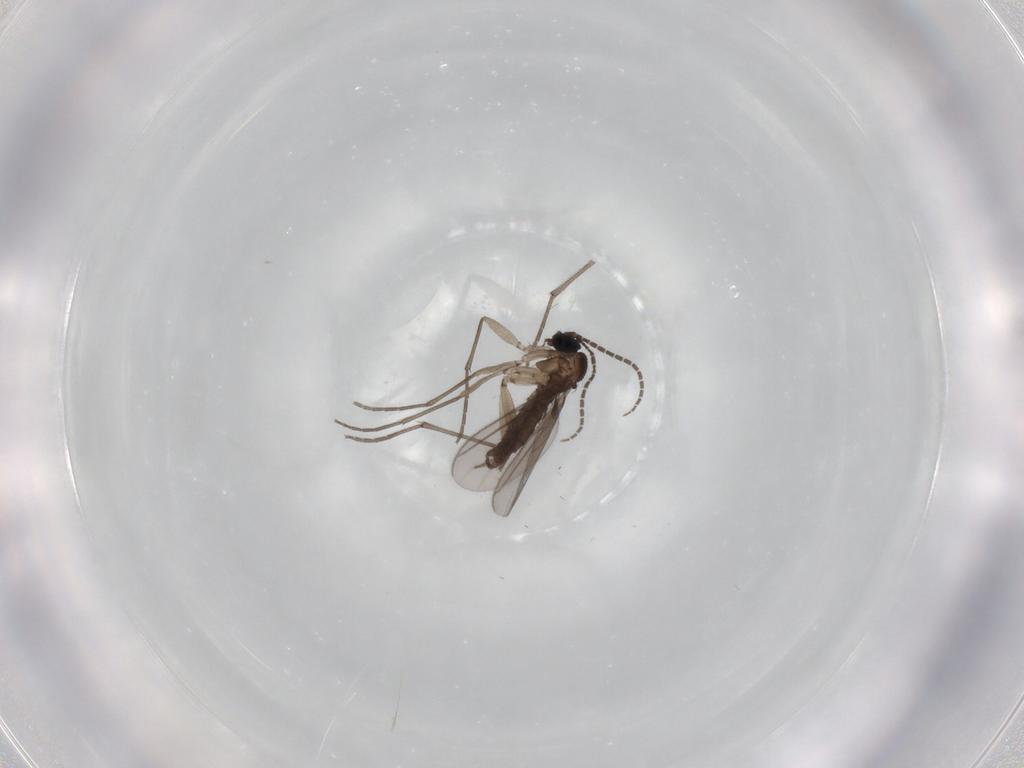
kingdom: Animalia
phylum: Arthropoda
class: Insecta
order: Diptera
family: Chironomidae
